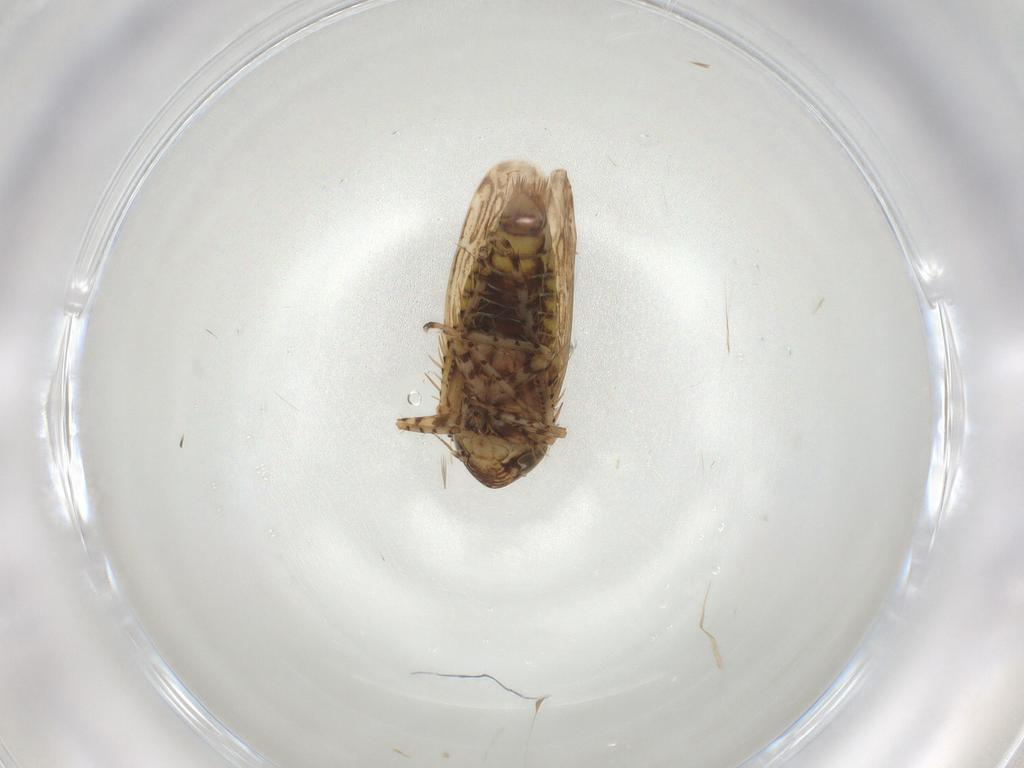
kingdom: Animalia
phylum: Arthropoda
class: Insecta
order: Hemiptera
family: Cicadellidae
